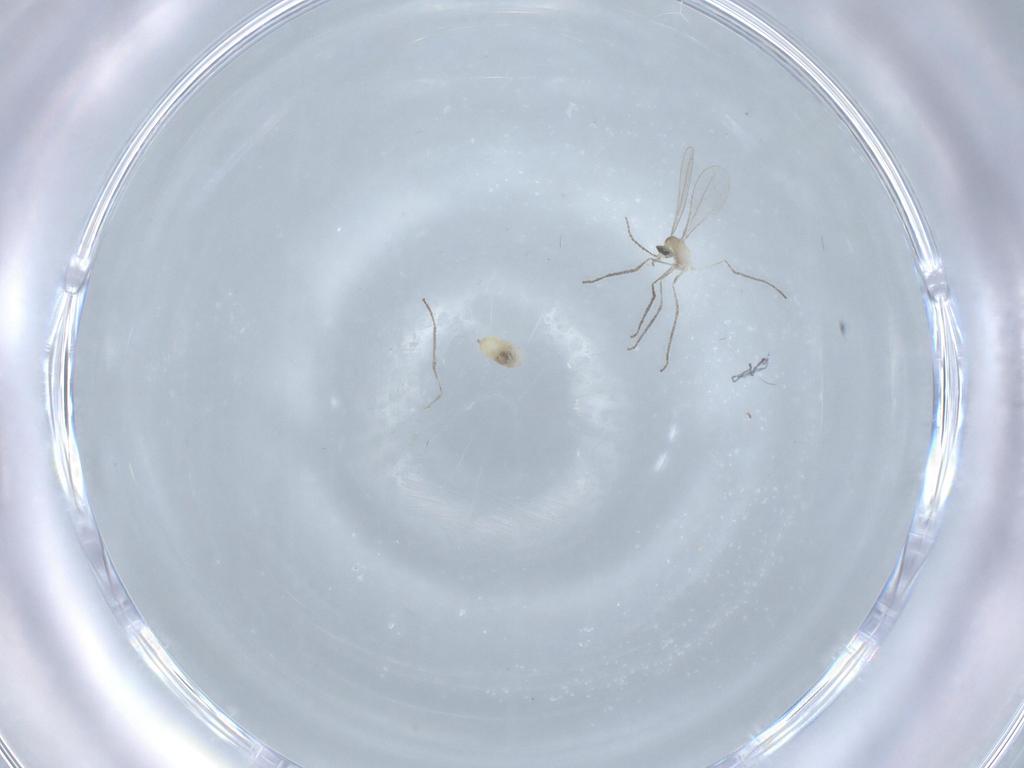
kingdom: Animalia
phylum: Arthropoda
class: Insecta
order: Diptera
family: Cecidomyiidae
